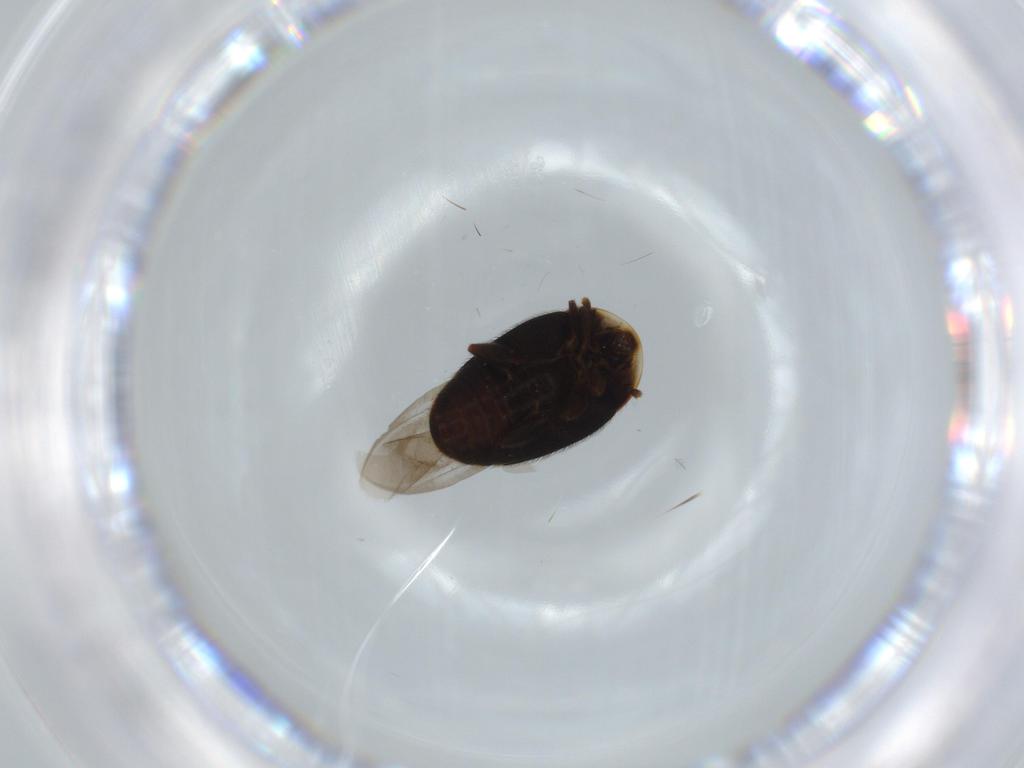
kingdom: Animalia
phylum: Arthropoda
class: Insecta
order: Coleoptera
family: Corylophidae
